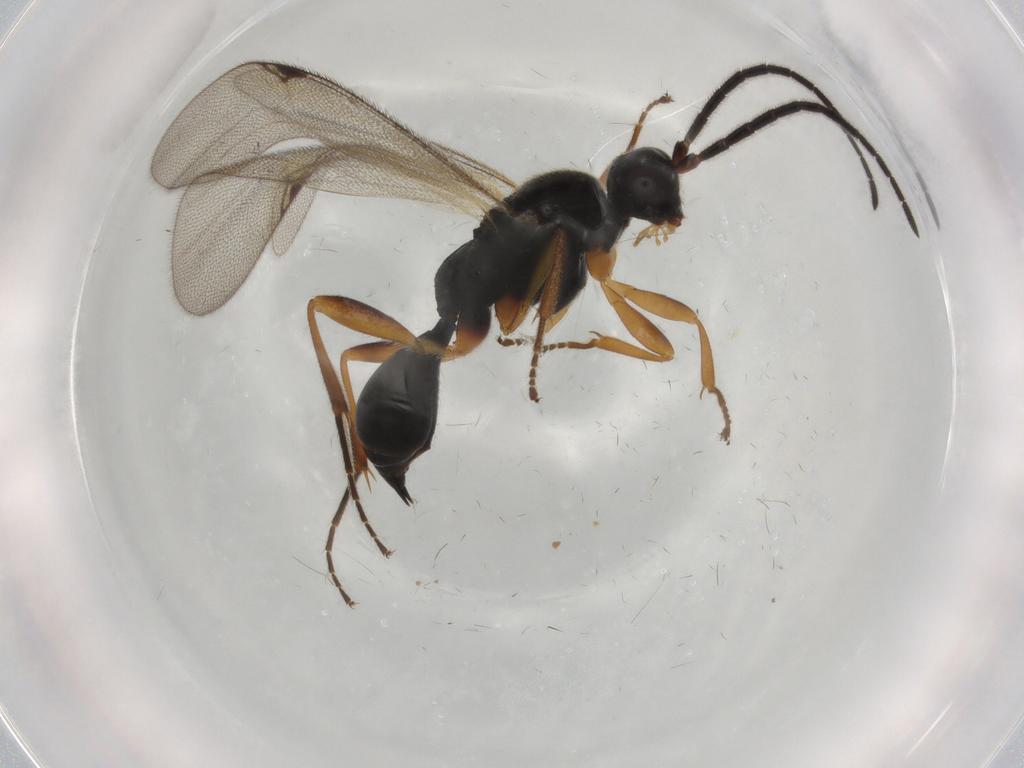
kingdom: Animalia
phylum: Arthropoda
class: Insecta
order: Hymenoptera
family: Proctotrupidae
